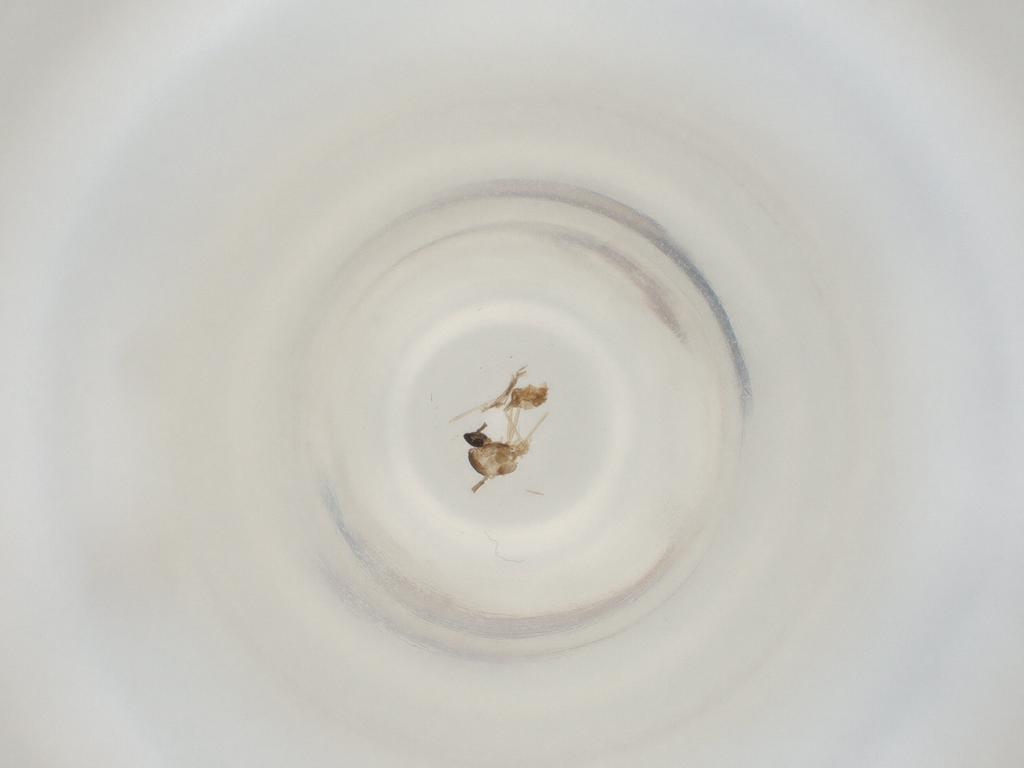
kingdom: Animalia
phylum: Arthropoda
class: Insecta
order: Diptera
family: Cecidomyiidae
